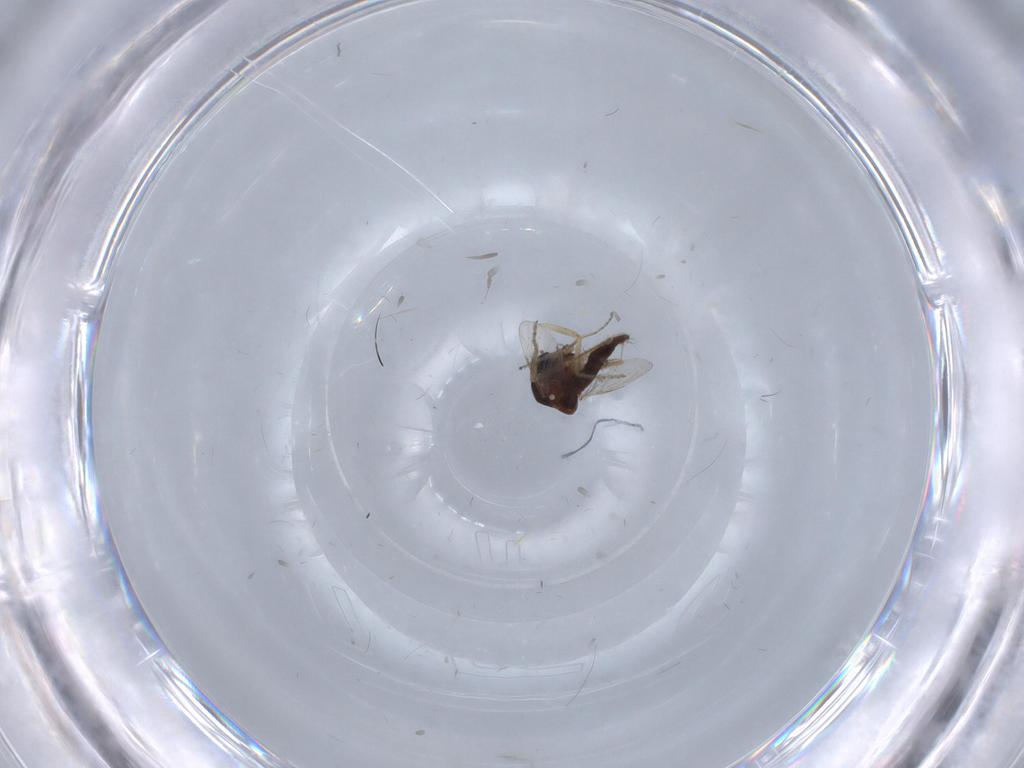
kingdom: Animalia
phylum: Arthropoda
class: Insecta
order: Diptera
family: Ceratopogonidae
